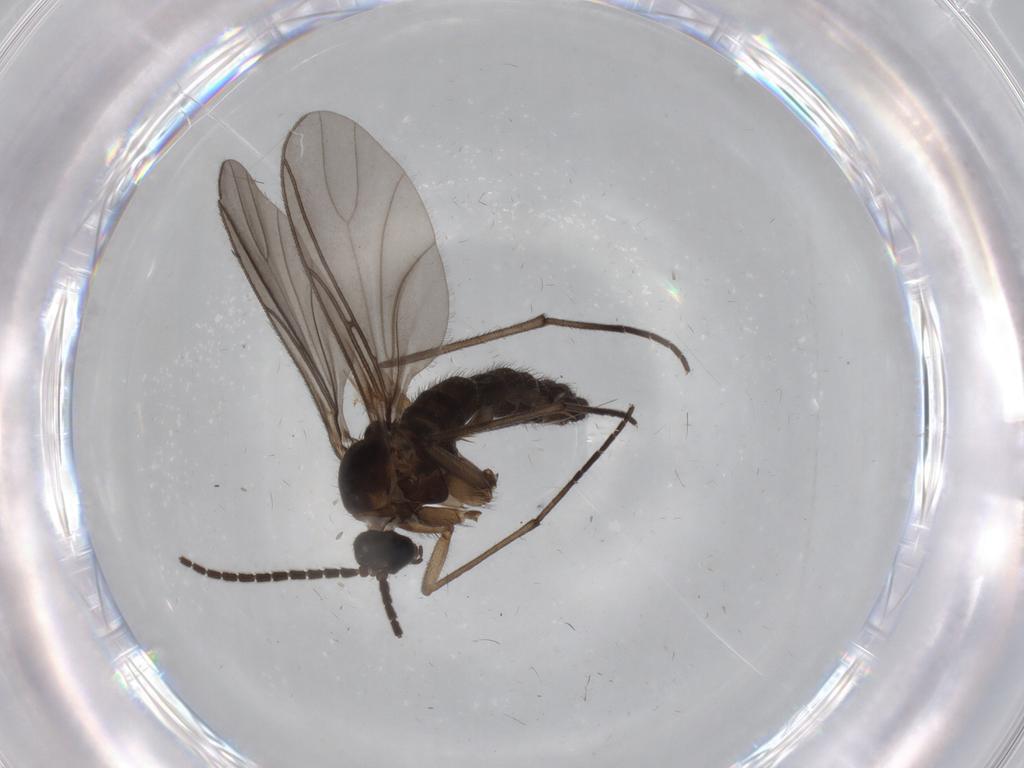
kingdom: Animalia
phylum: Arthropoda
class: Insecta
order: Diptera
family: Sciaridae
